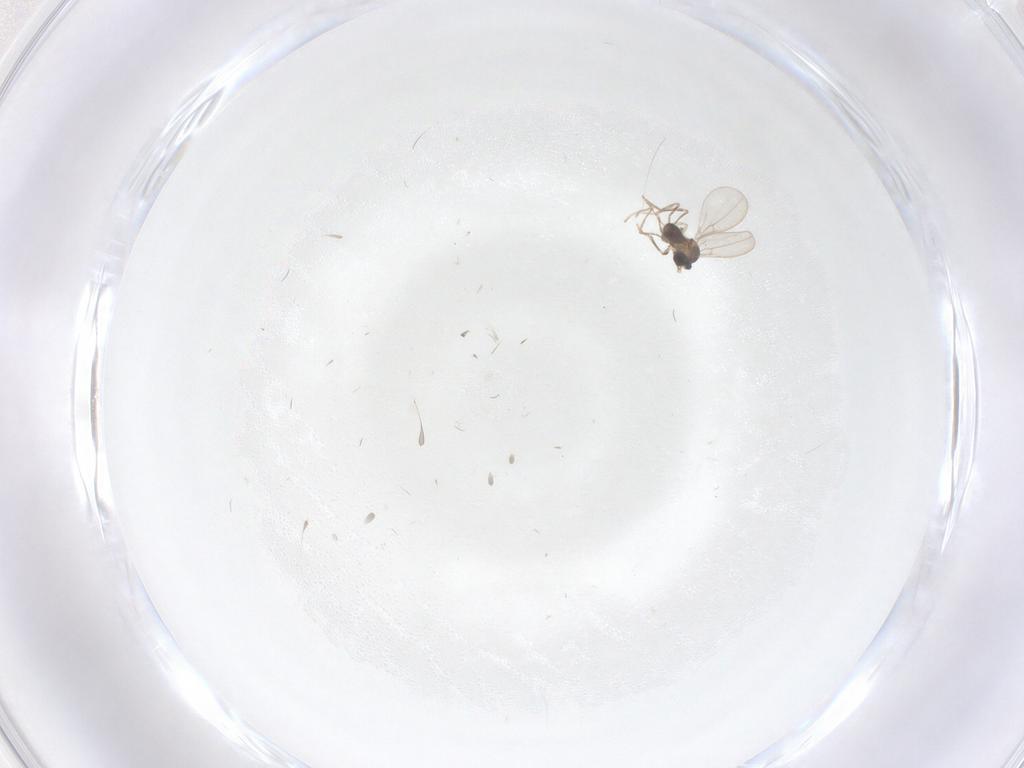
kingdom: Animalia
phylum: Arthropoda
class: Insecta
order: Diptera
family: Cecidomyiidae
